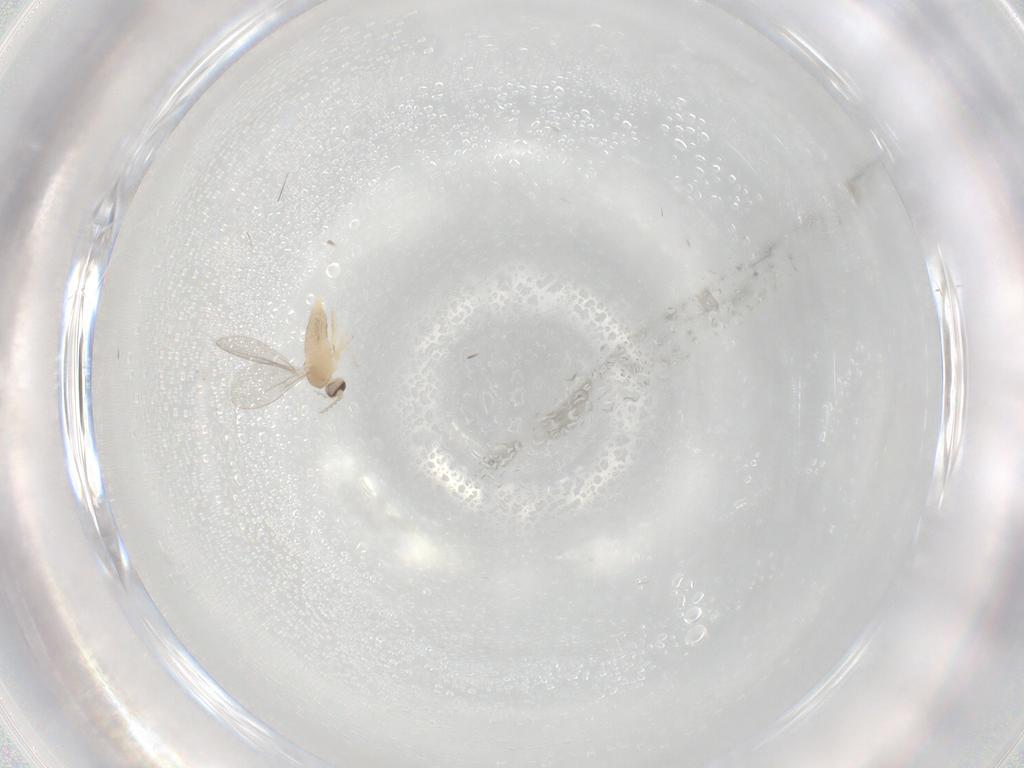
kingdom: Animalia
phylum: Arthropoda
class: Insecta
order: Diptera
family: Cecidomyiidae
